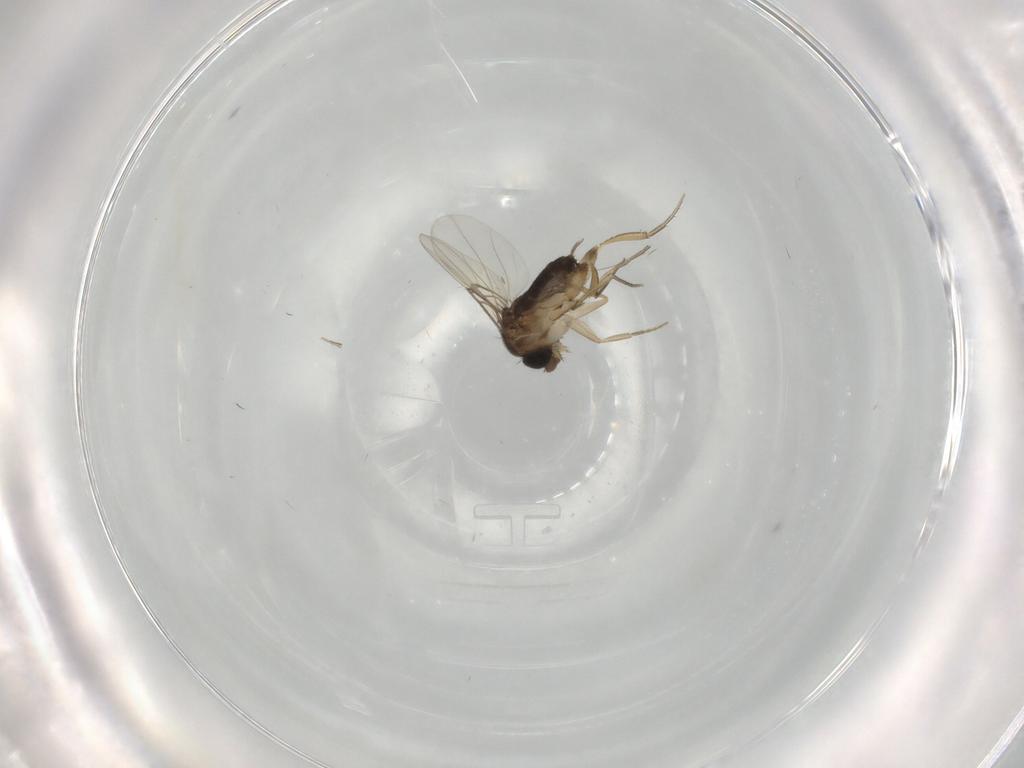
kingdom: Animalia
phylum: Arthropoda
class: Insecta
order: Diptera
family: Phoridae
